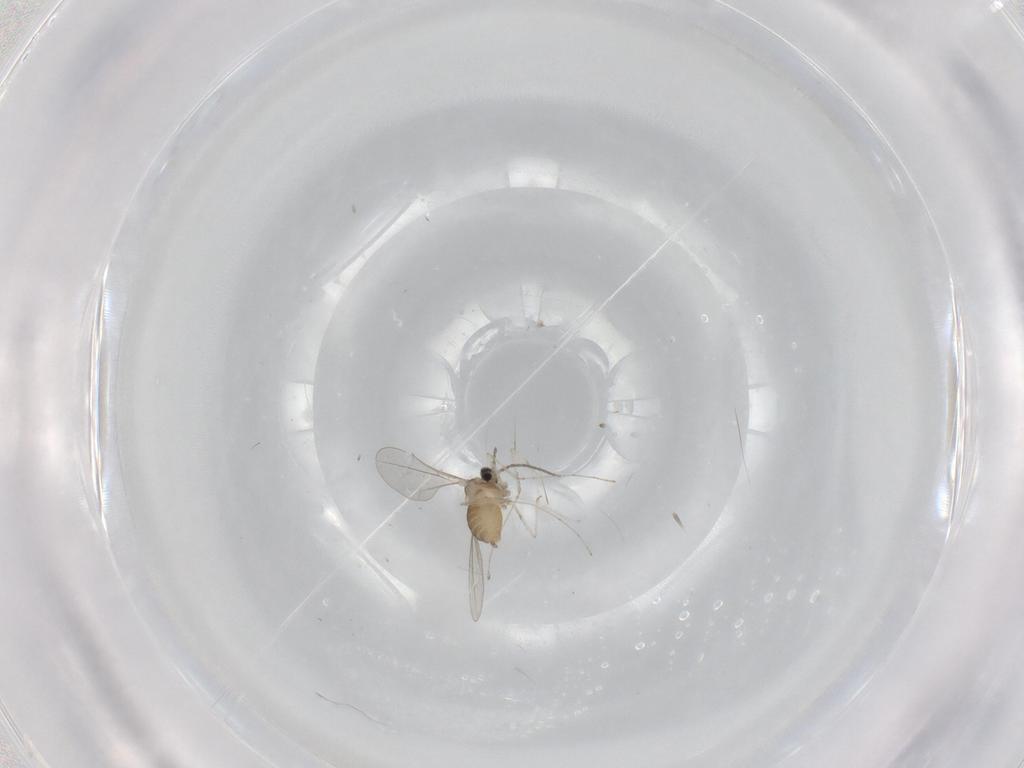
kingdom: Animalia
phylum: Arthropoda
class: Insecta
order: Diptera
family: Cecidomyiidae
